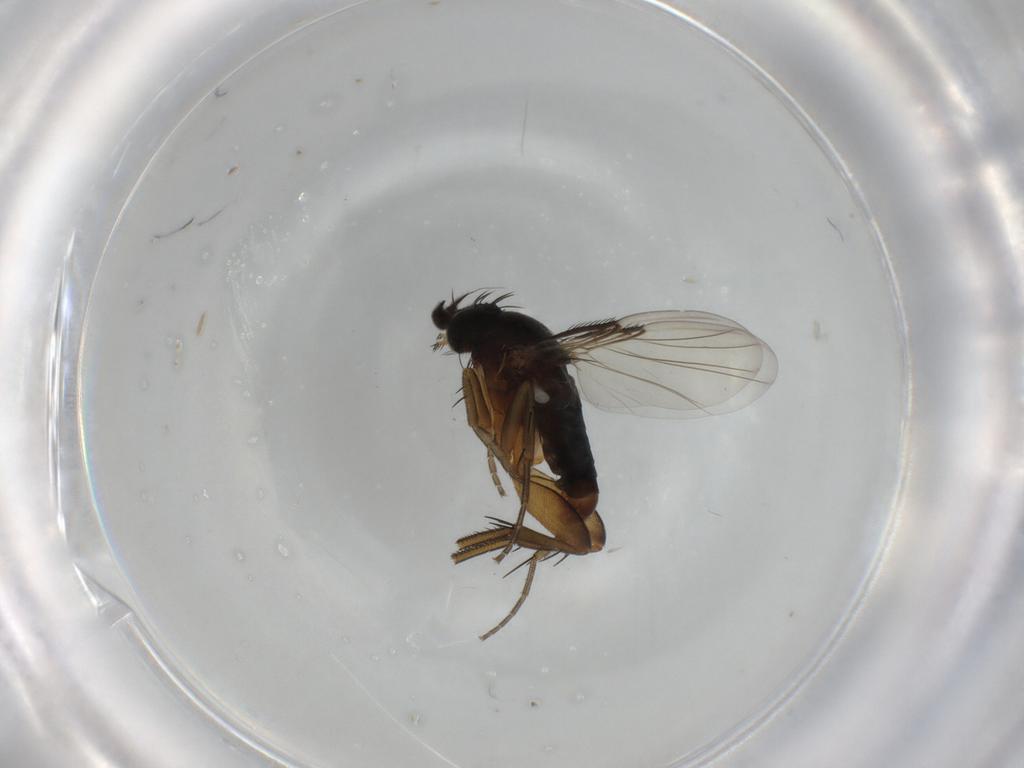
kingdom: Animalia
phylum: Arthropoda
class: Insecta
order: Diptera
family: Phoridae
